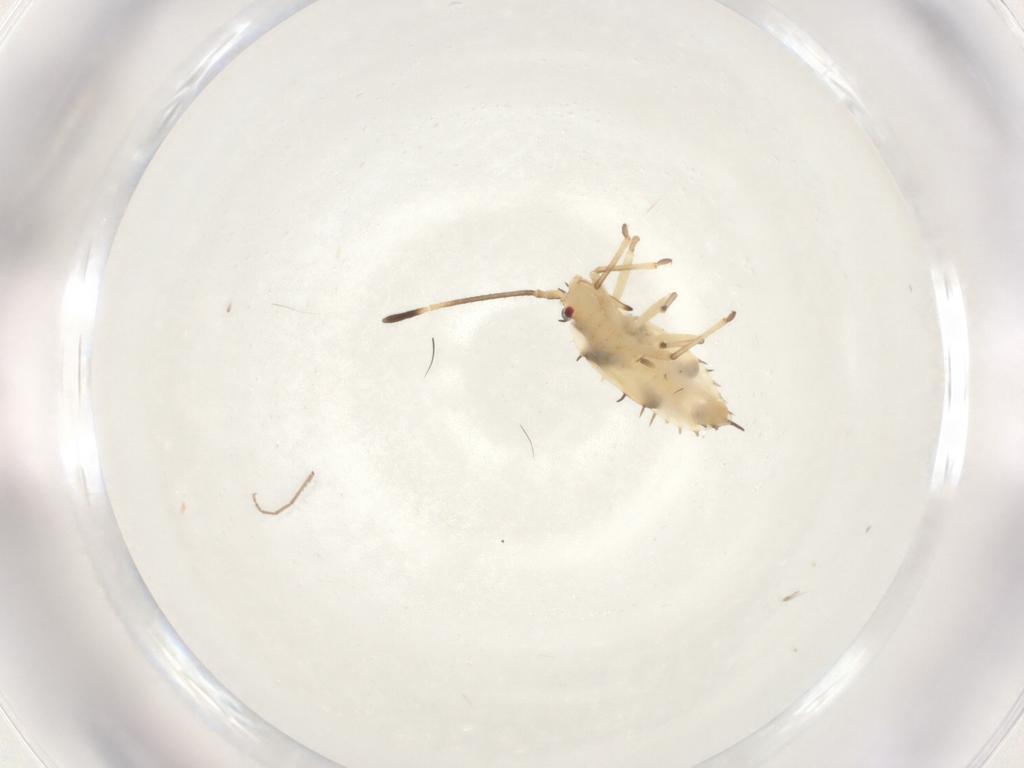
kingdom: Animalia
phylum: Arthropoda
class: Insecta
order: Hemiptera
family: Tingidae
